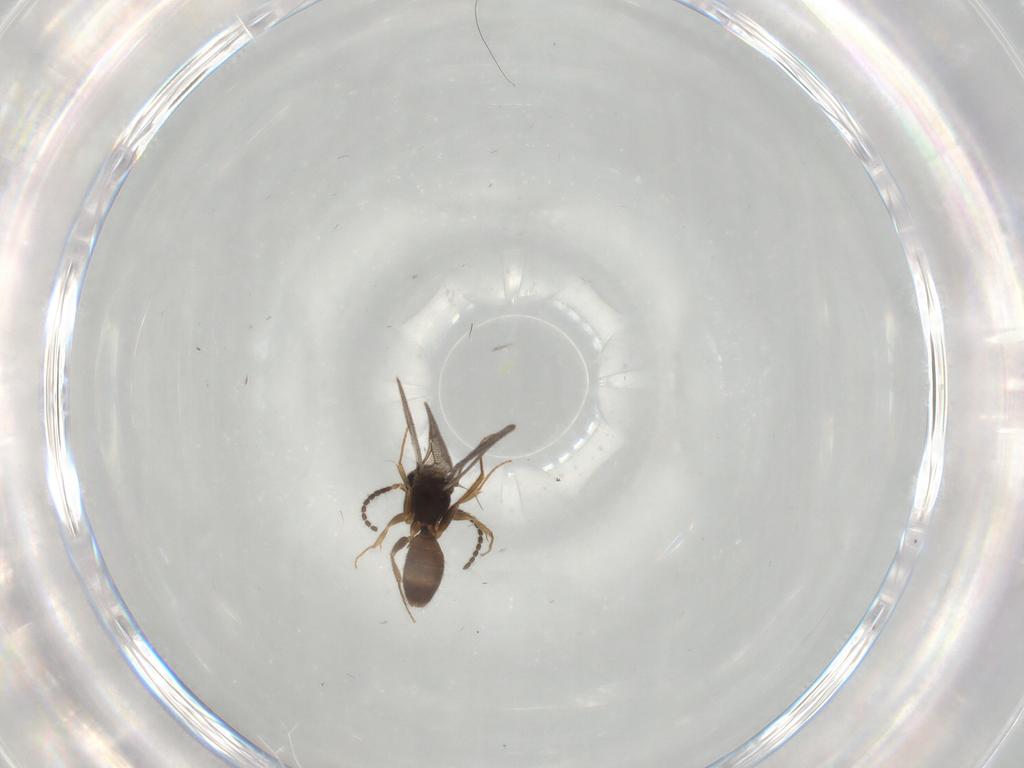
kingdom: Animalia
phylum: Arthropoda
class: Insecta
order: Hymenoptera
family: Bethylidae
